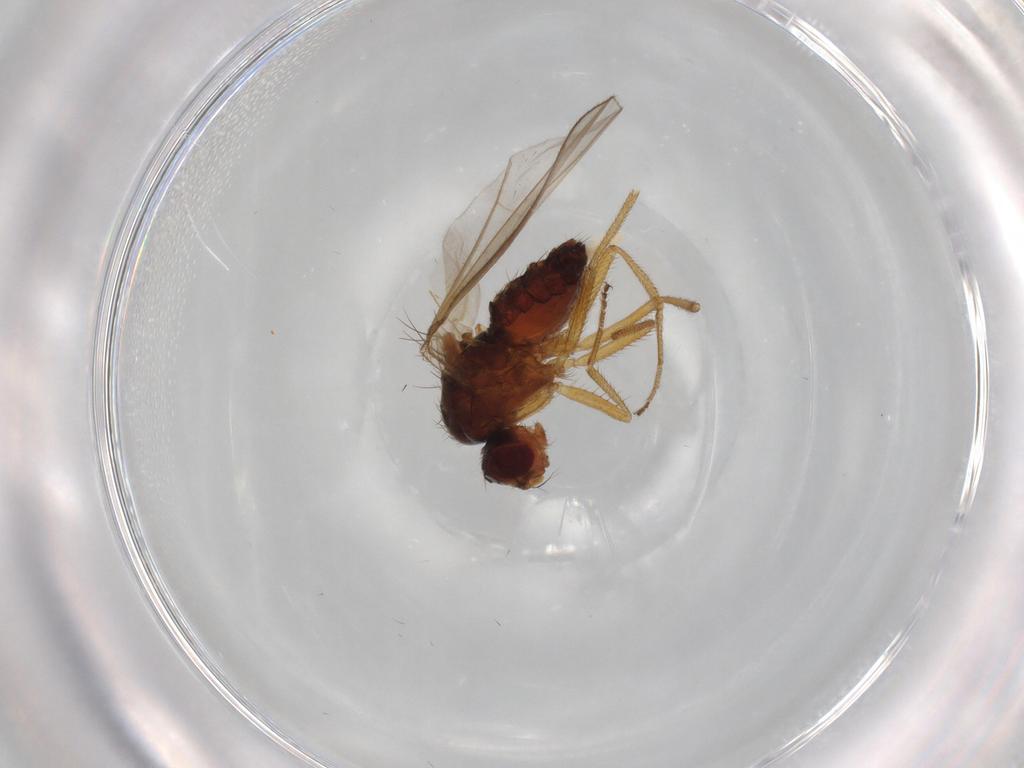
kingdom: Animalia
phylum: Arthropoda
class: Insecta
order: Diptera
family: Drosophilidae
